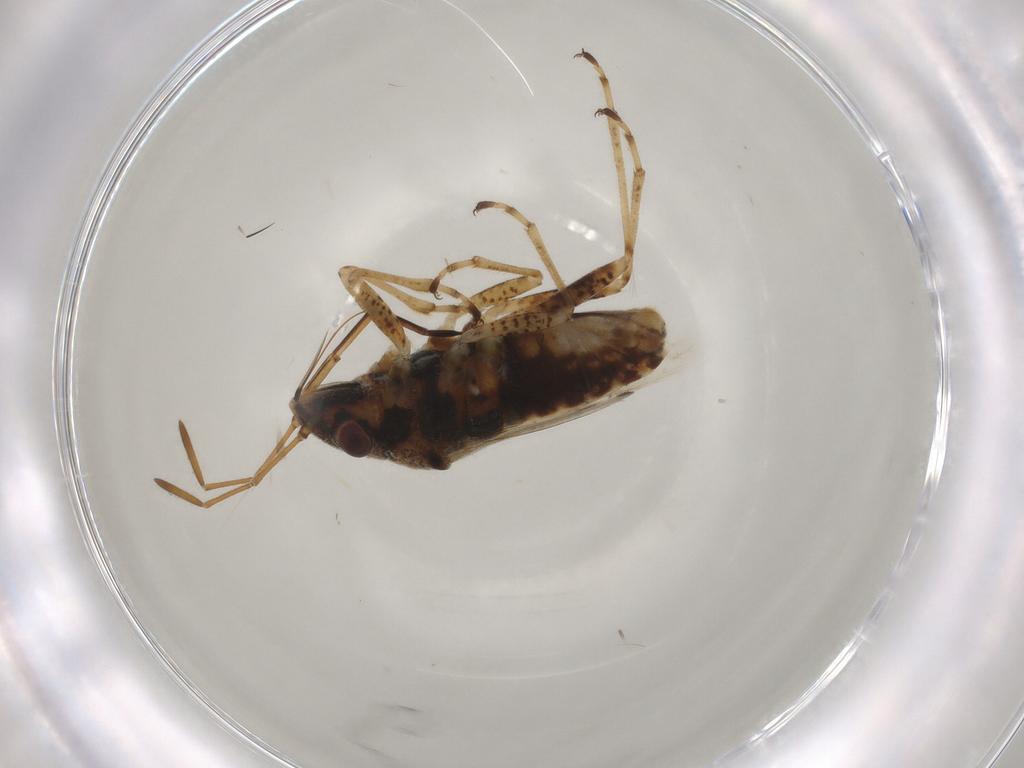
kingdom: Animalia
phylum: Arthropoda
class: Insecta
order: Hemiptera
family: Lygaeidae
